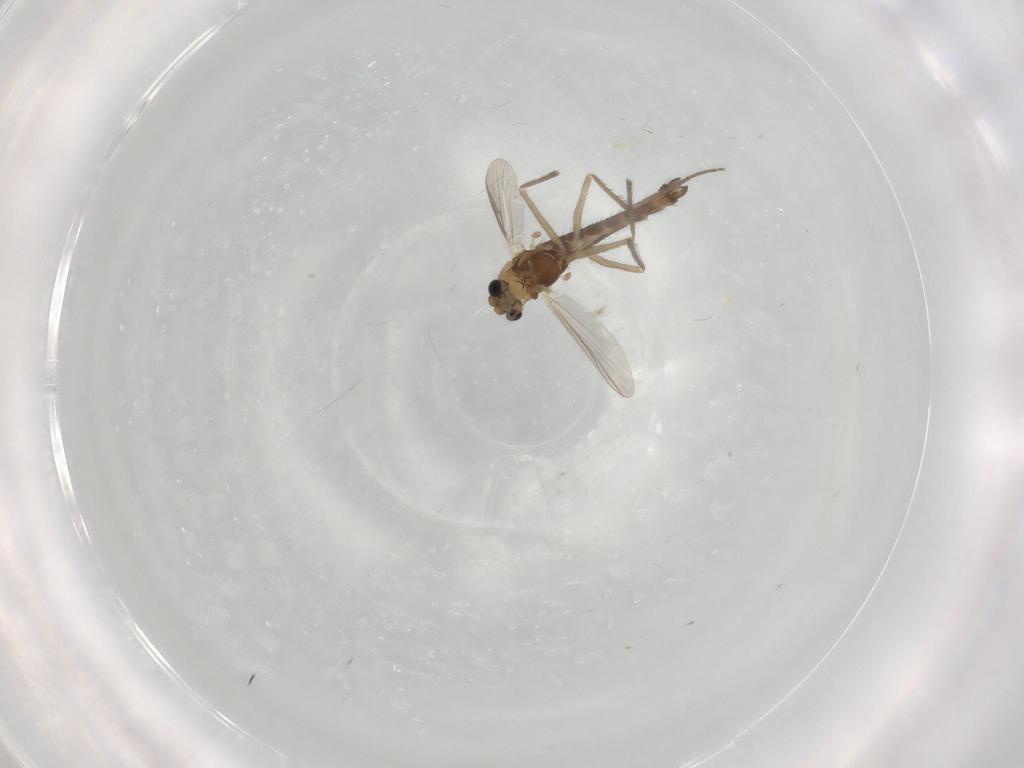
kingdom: Animalia
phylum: Arthropoda
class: Insecta
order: Diptera
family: Chironomidae
